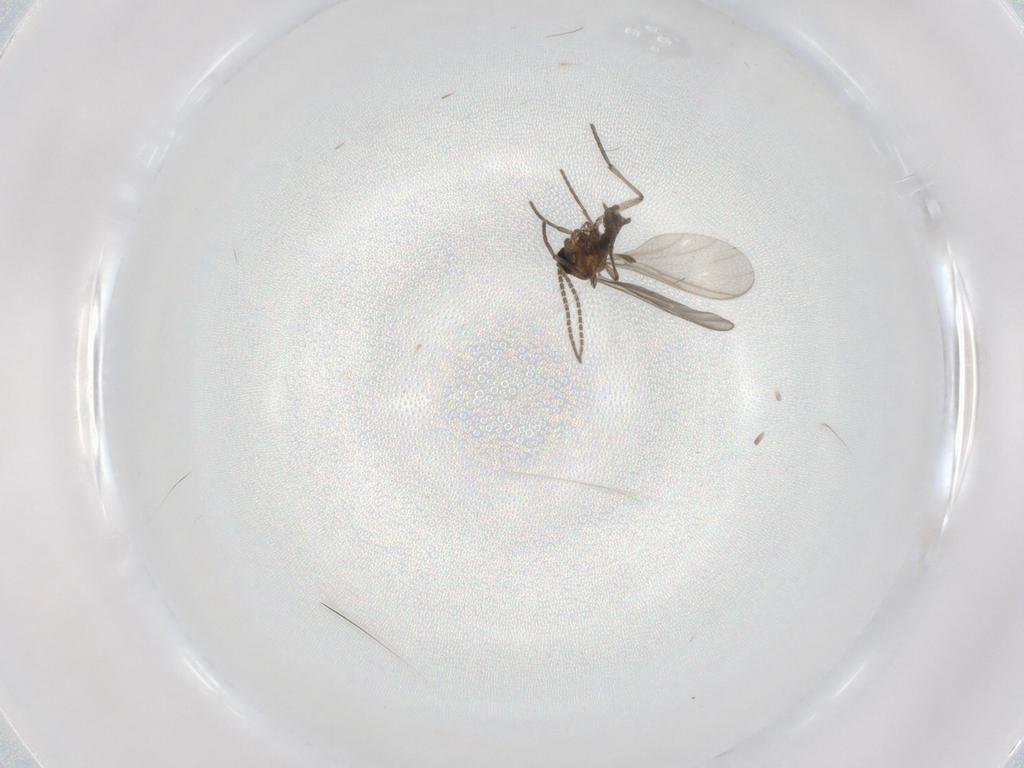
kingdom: Animalia
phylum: Arthropoda
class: Insecta
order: Diptera
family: Sciaridae
